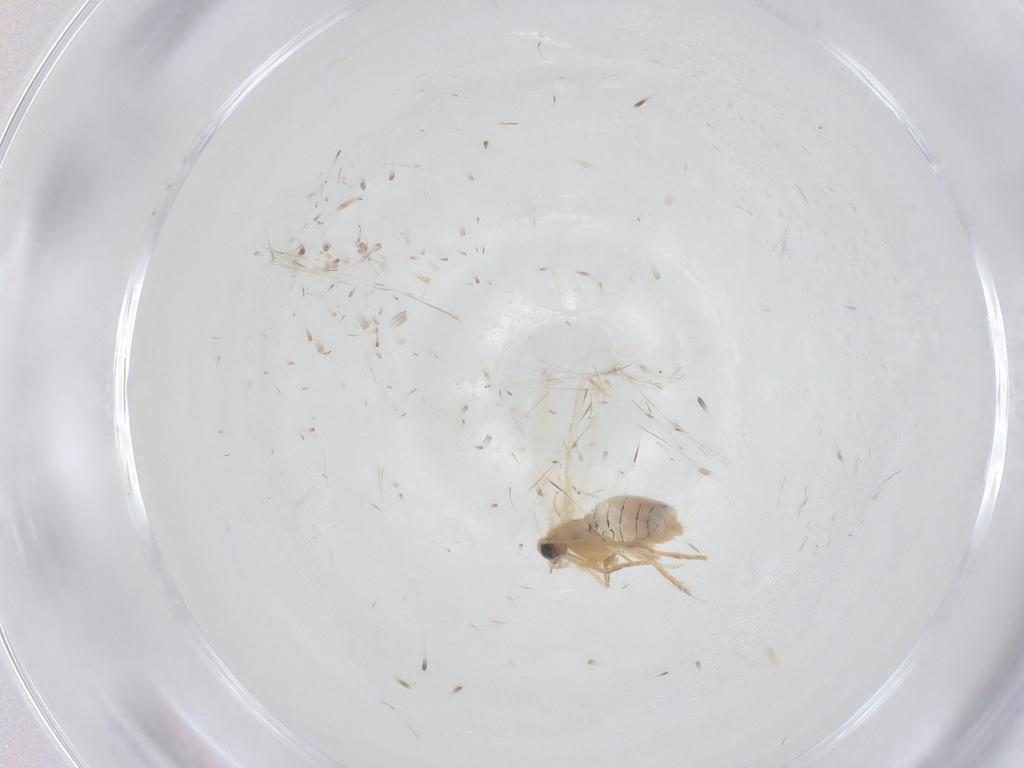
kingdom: Animalia
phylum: Arthropoda
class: Insecta
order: Lepidoptera
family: Nepticulidae
